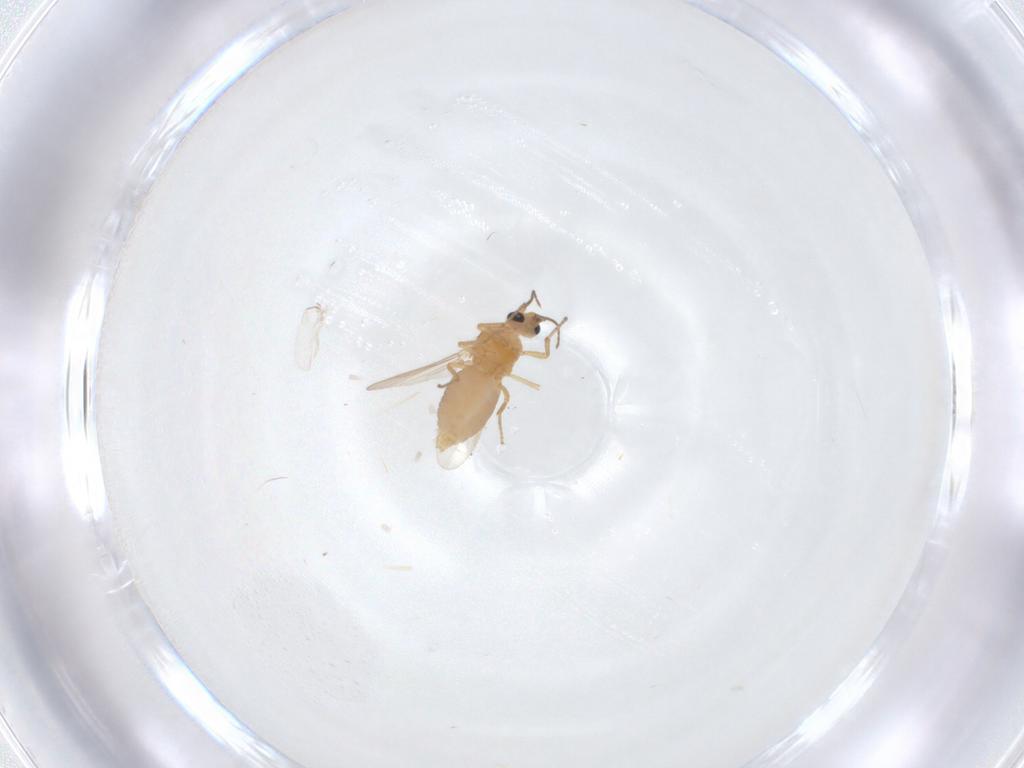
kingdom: Animalia
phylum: Arthropoda
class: Insecta
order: Diptera
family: Ceratopogonidae
